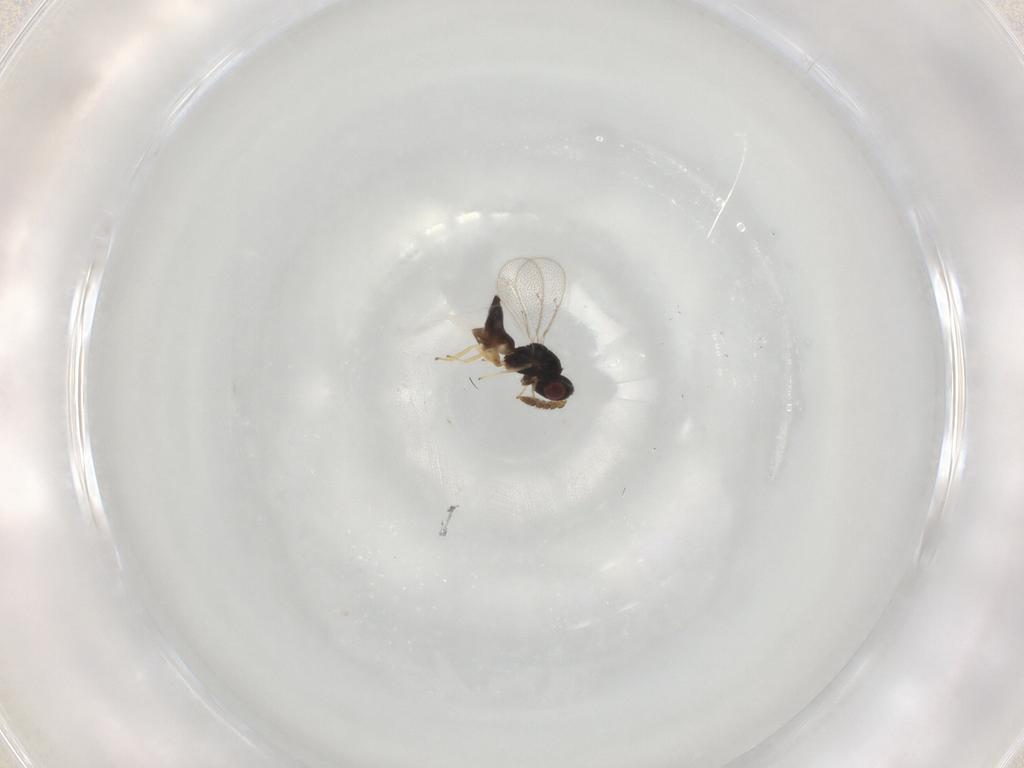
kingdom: Animalia
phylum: Arthropoda
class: Insecta
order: Hymenoptera
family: Eulophidae
